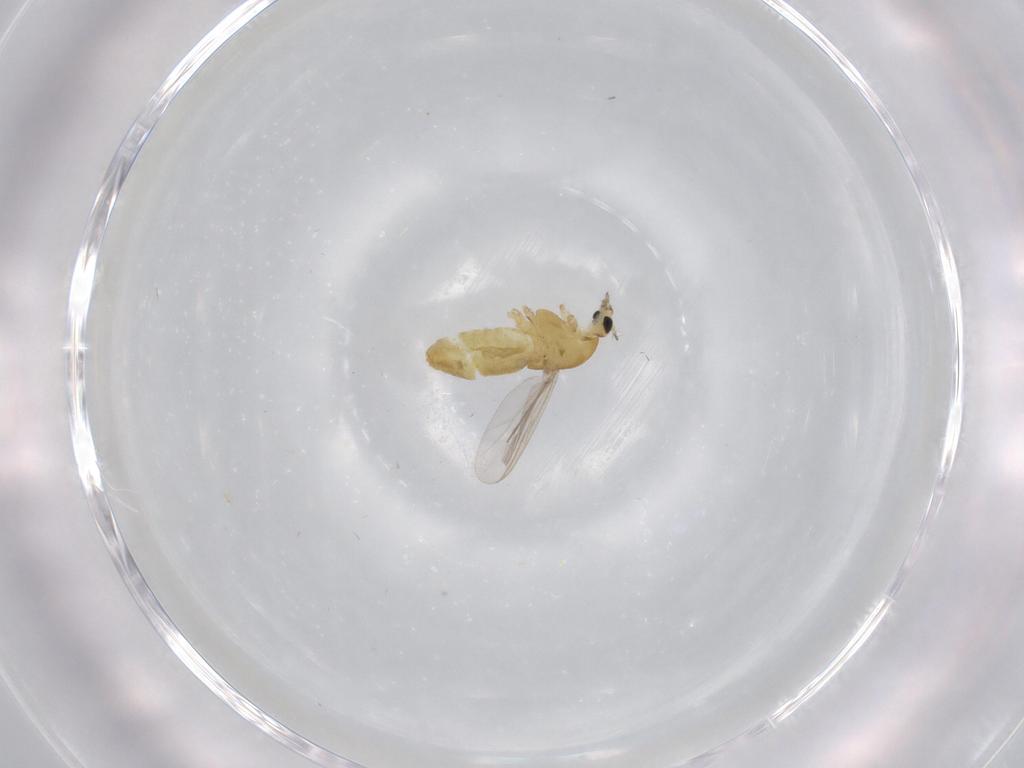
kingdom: Animalia
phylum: Arthropoda
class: Insecta
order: Diptera
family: Chironomidae
